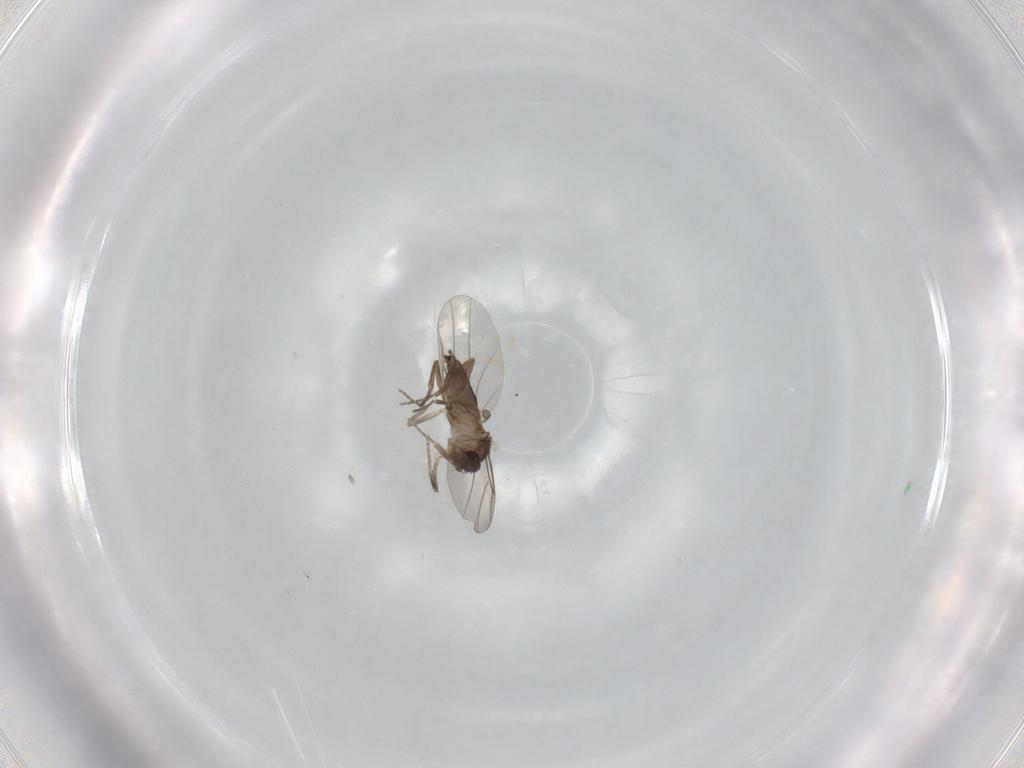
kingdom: Animalia
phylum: Arthropoda
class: Insecta
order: Diptera
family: Phoridae
